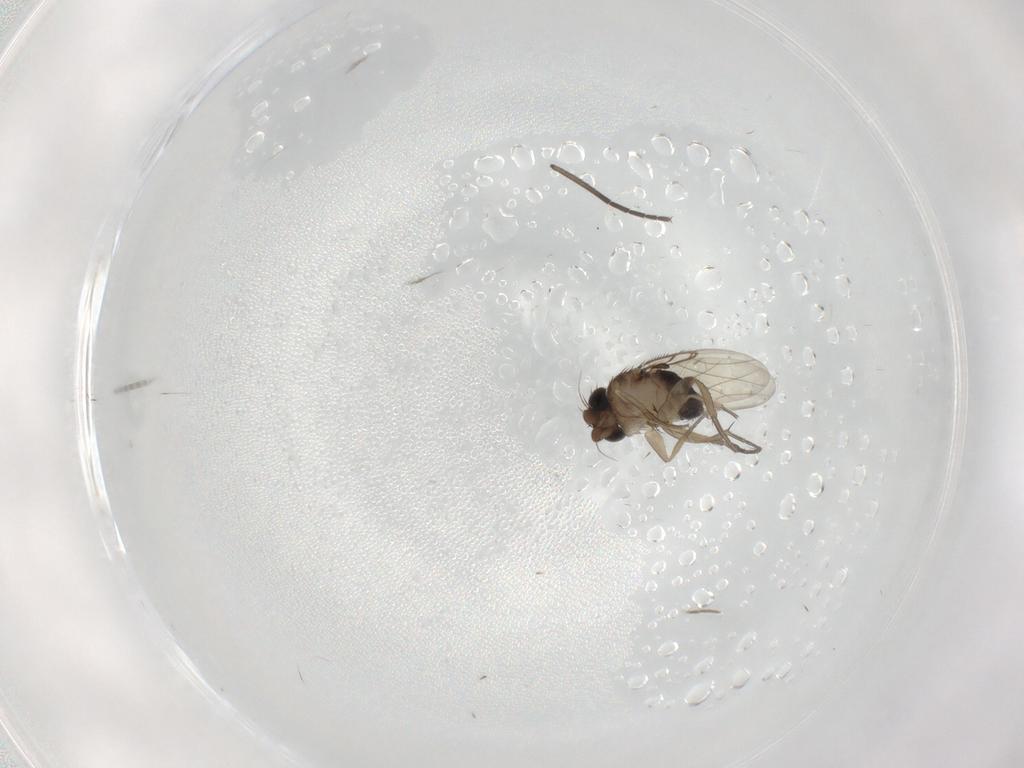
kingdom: Animalia
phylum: Arthropoda
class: Insecta
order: Diptera
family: Phoridae
